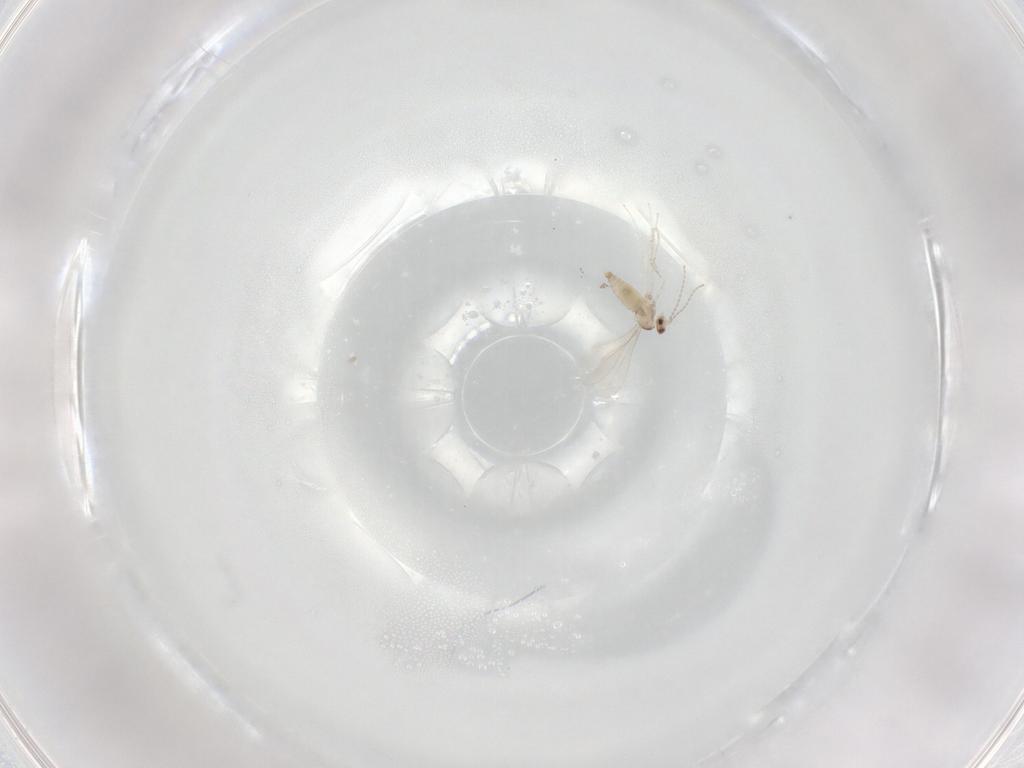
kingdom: Animalia
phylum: Arthropoda
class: Insecta
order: Diptera
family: Cecidomyiidae
